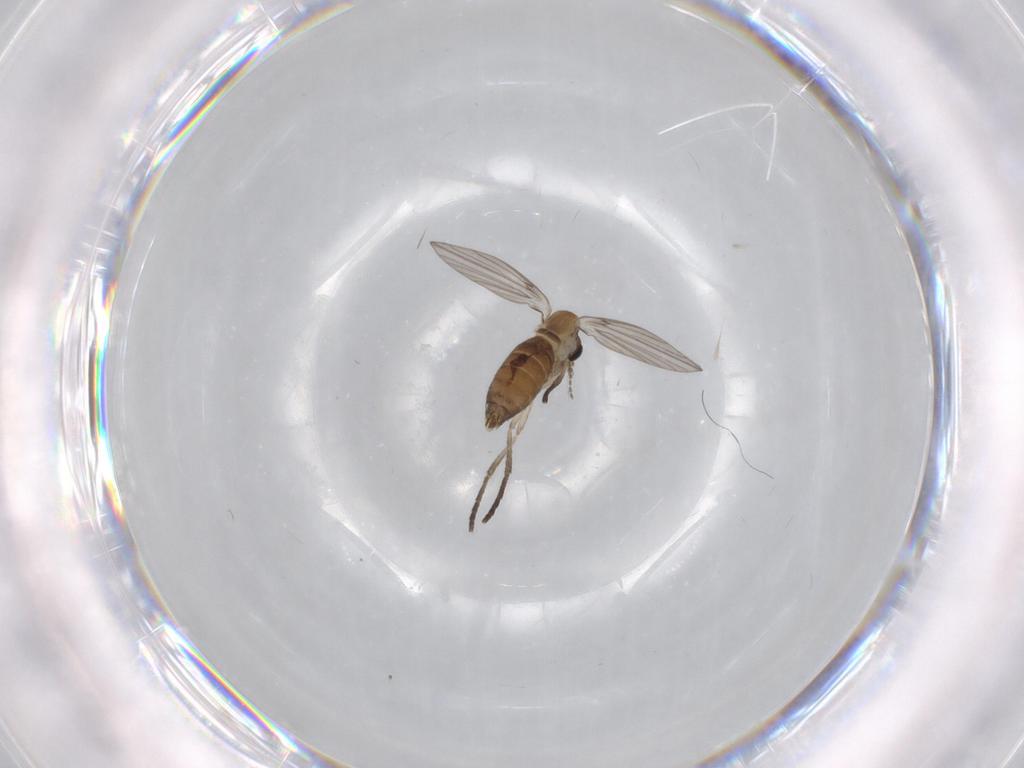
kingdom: Animalia
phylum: Arthropoda
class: Insecta
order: Diptera
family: Psychodidae
